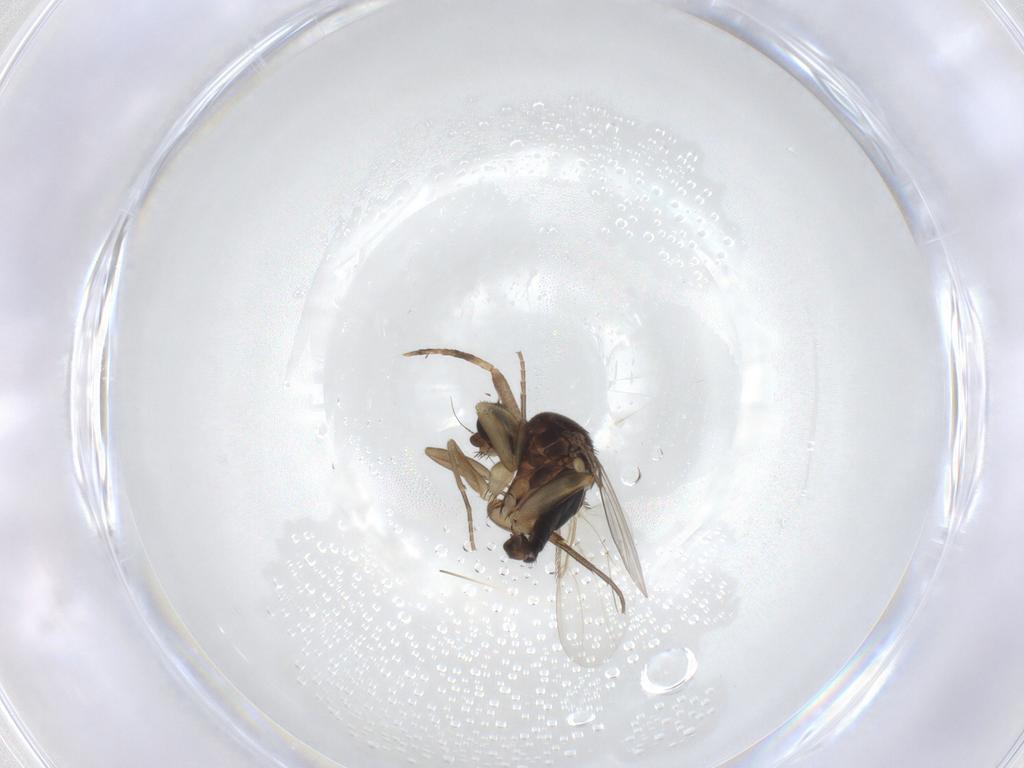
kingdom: Animalia
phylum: Arthropoda
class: Insecta
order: Diptera
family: Phoridae
